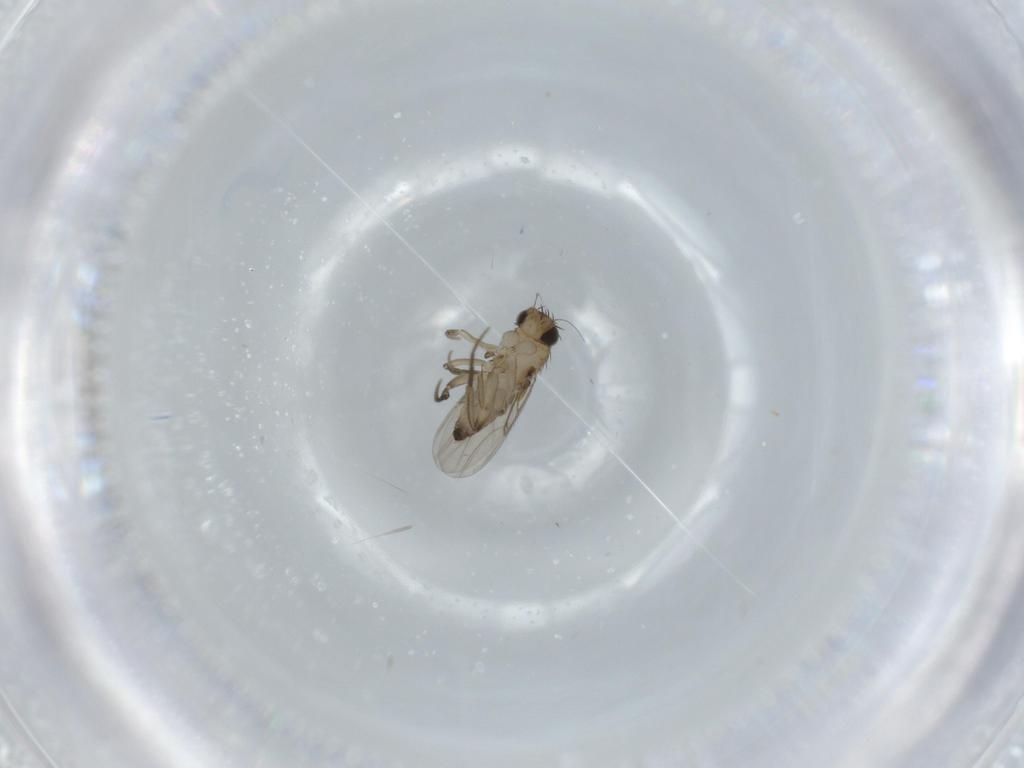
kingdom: Animalia
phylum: Arthropoda
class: Insecta
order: Diptera
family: Phoridae
